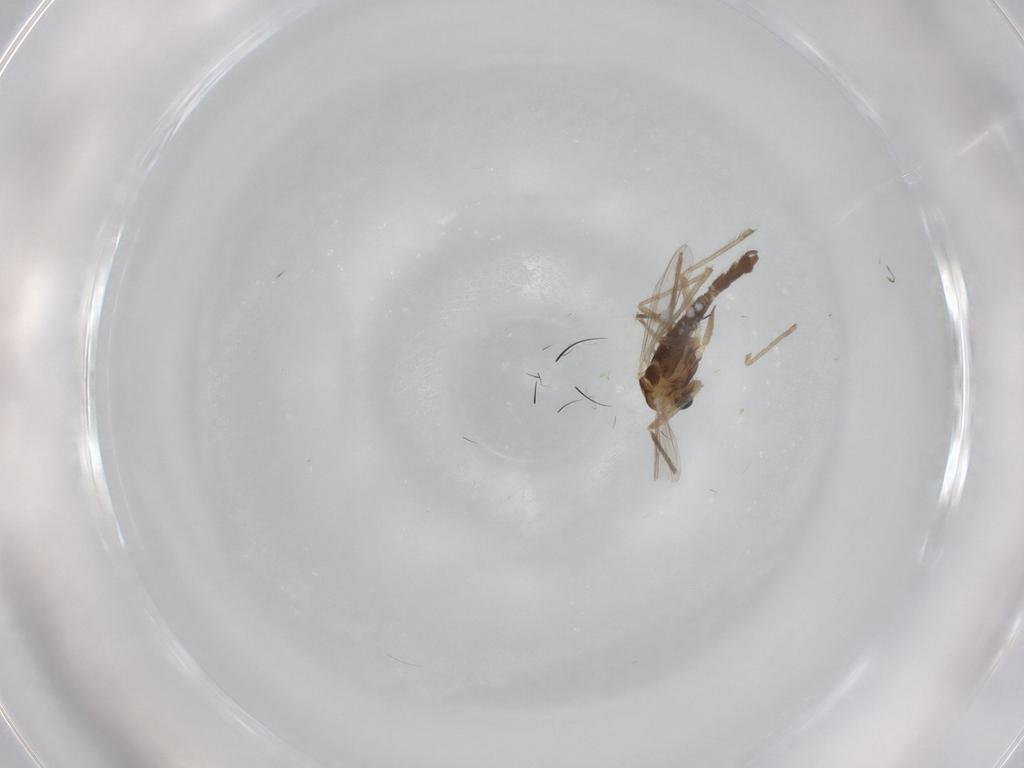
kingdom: Animalia
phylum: Arthropoda
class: Insecta
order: Diptera
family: Chironomidae
